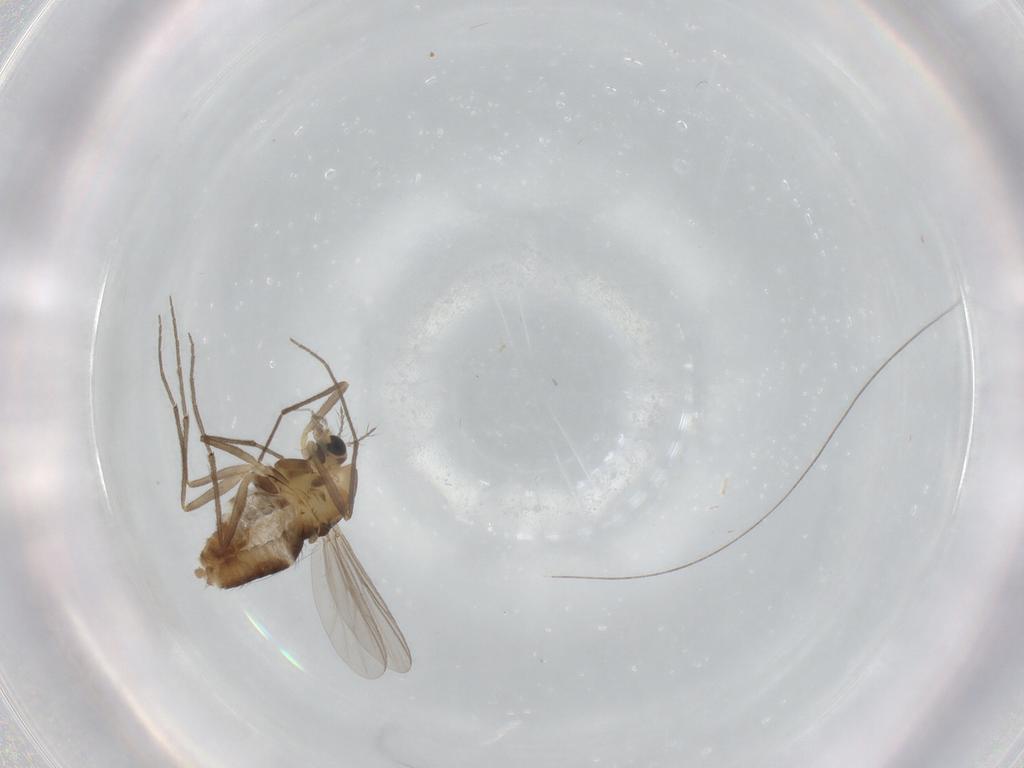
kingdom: Animalia
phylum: Arthropoda
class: Insecta
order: Diptera
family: Chironomidae
